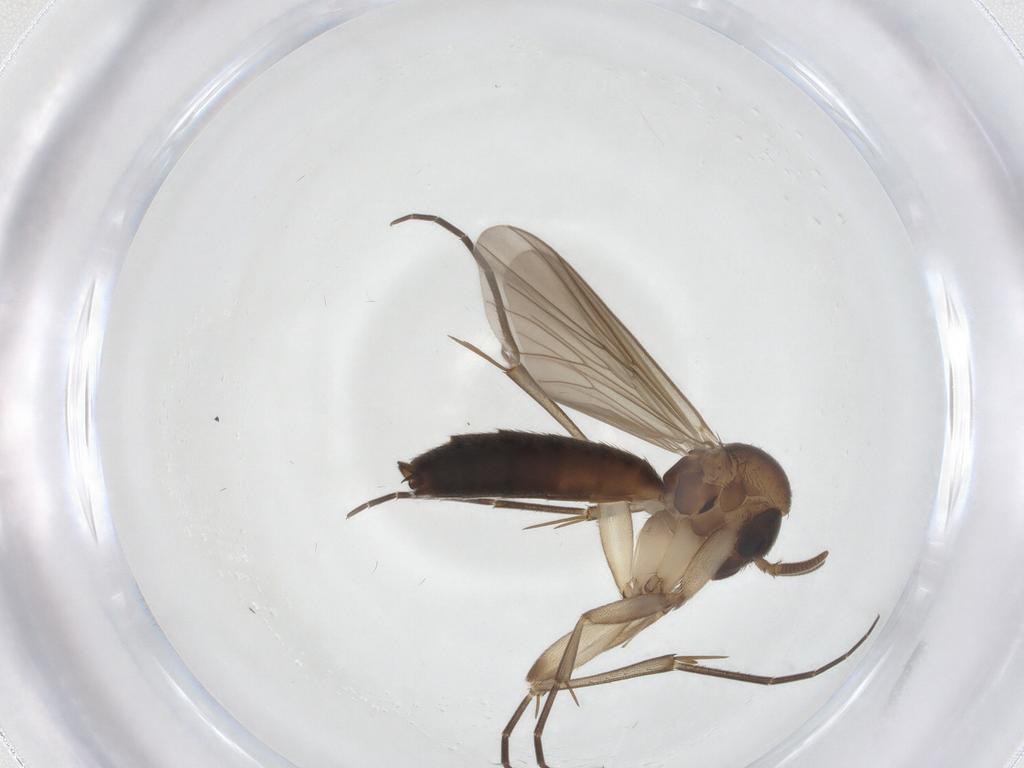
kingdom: Animalia
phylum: Arthropoda
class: Insecta
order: Diptera
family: Mycetophilidae
